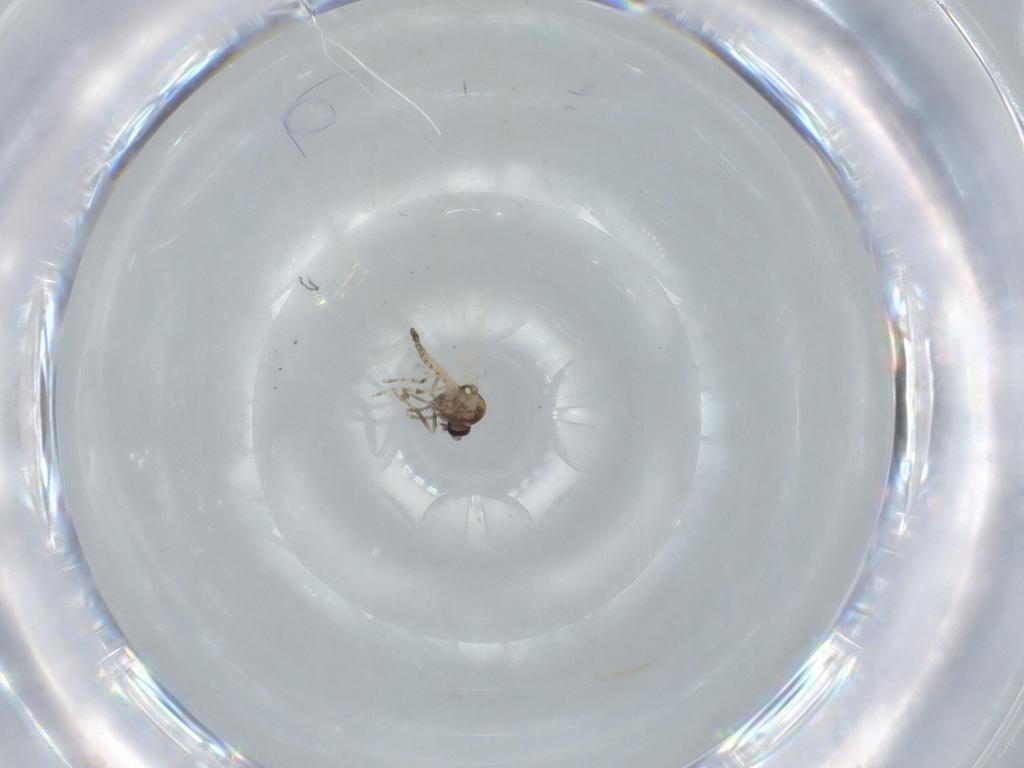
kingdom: Animalia
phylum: Arthropoda
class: Insecta
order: Diptera
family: Ceratopogonidae
